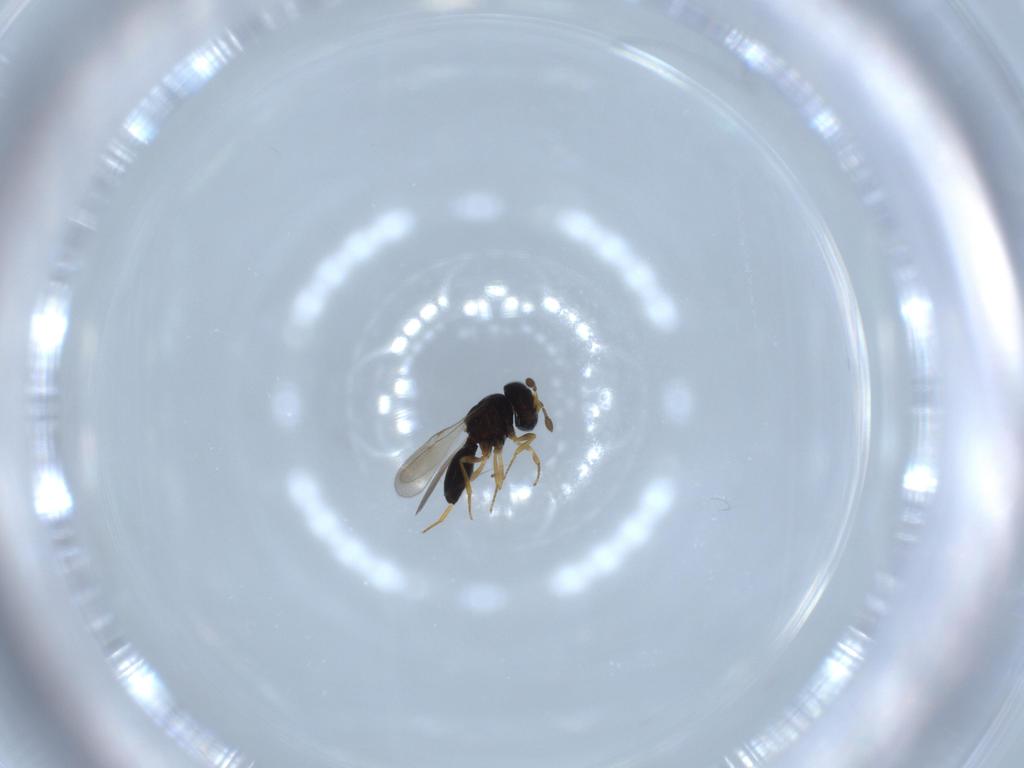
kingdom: Animalia
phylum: Arthropoda
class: Insecta
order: Hymenoptera
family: Scelionidae
